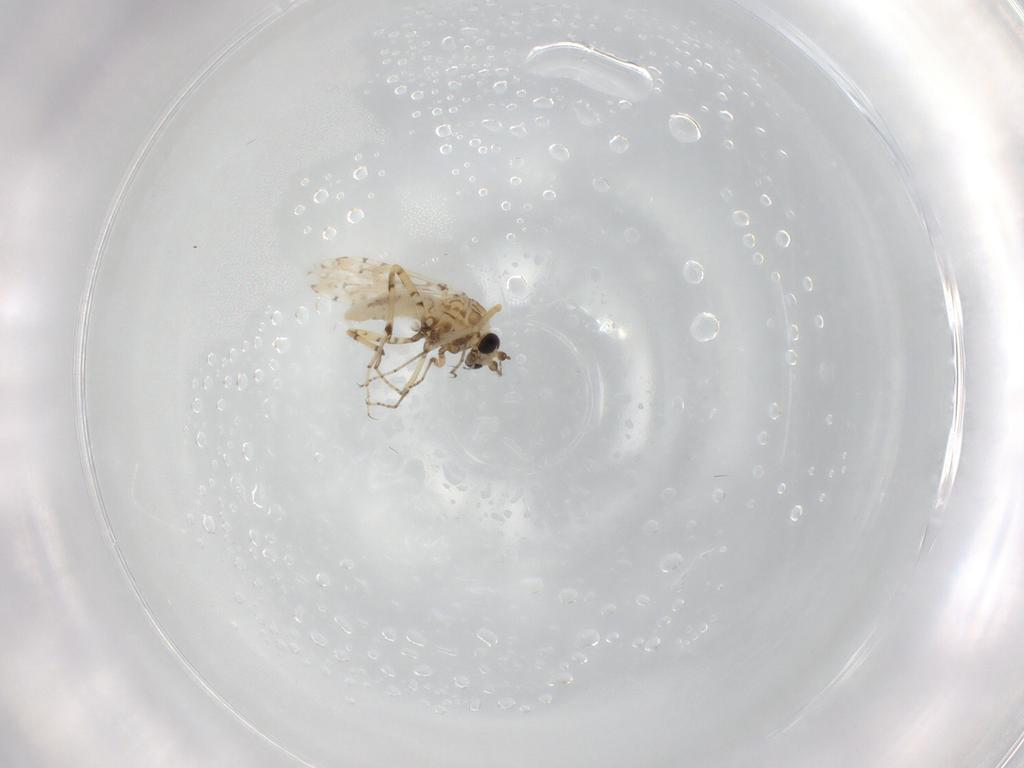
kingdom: Animalia
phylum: Arthropoda
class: Insecta
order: Diptera
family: Ceratopogonidae
